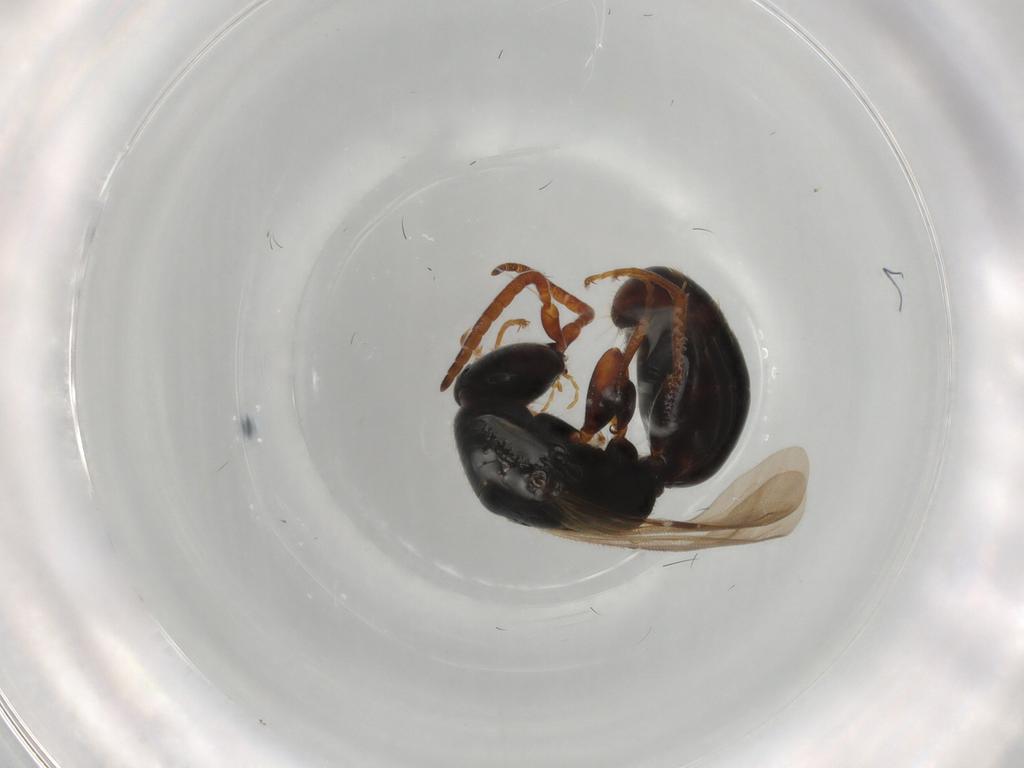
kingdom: Animalia
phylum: Arthropoda
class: Insecta
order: Hymenoptera
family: Bethylidae
